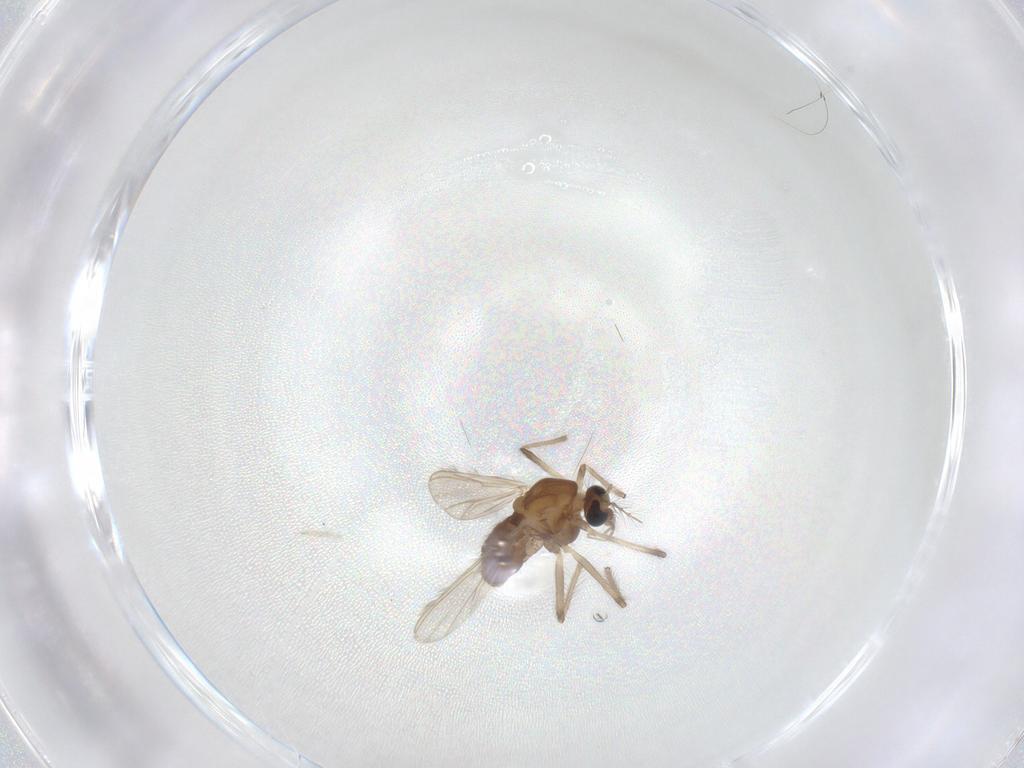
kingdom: Animalia
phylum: Arthropoda
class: Insecta
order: Diptera
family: Chironomidae
